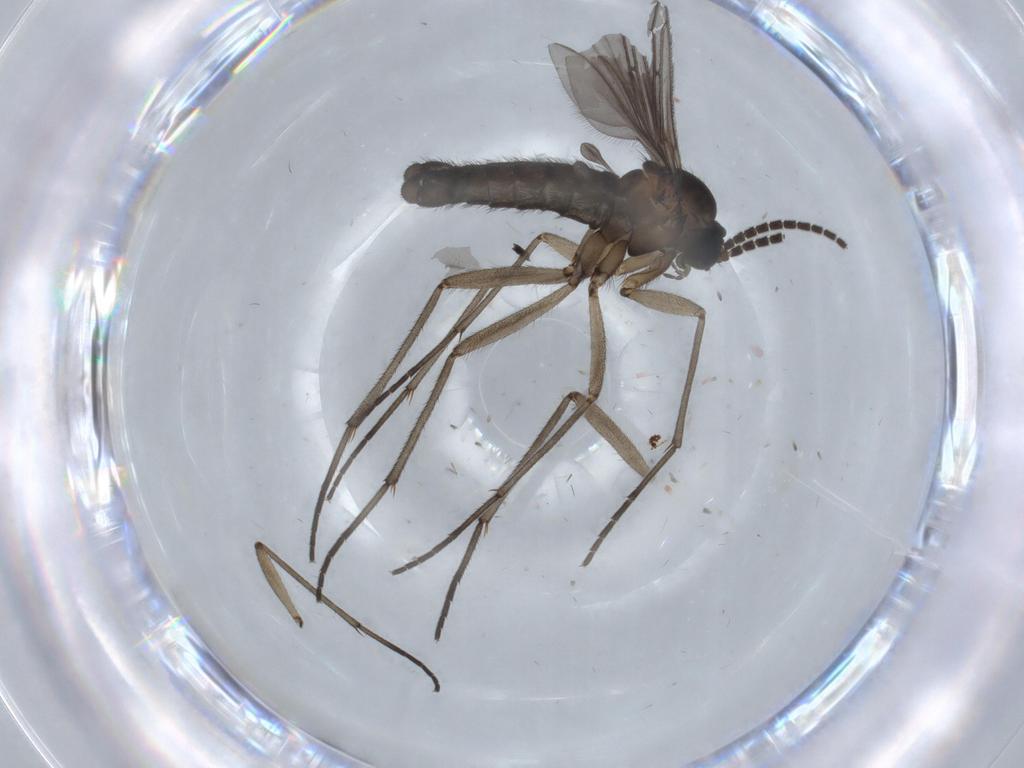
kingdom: Animalia
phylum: Arthropoda
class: Insecta
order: Diptera
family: Sciaridae
